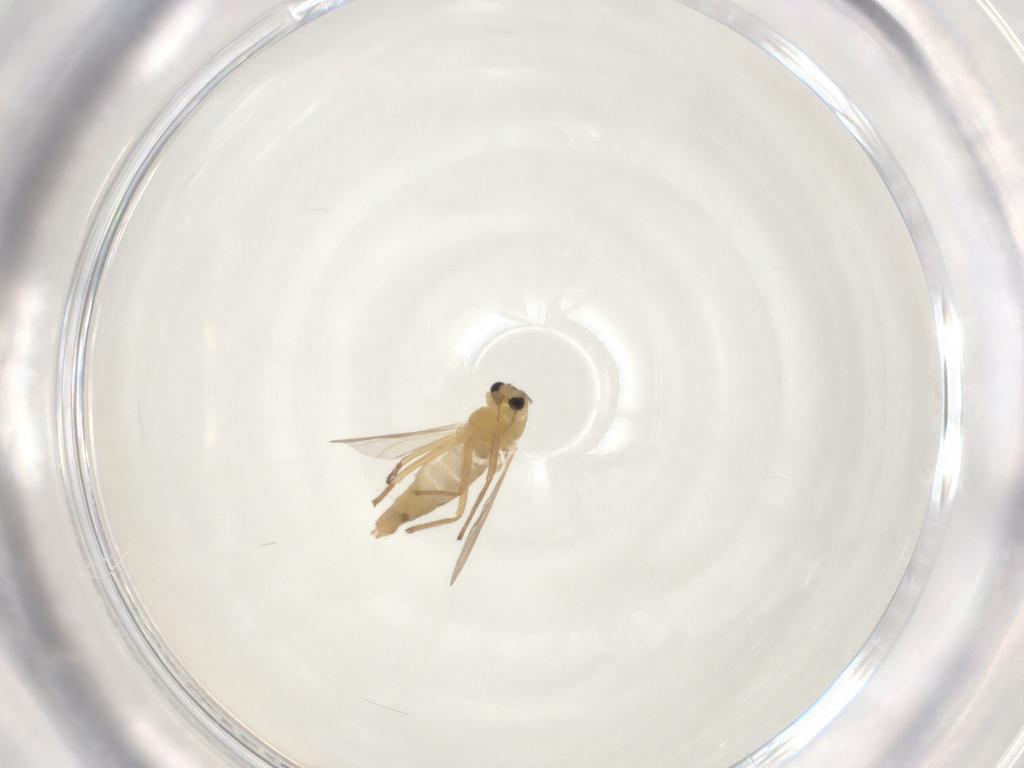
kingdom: Animalia
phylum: Arthropoda
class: Insecta
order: Diptera
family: Chironomidae
